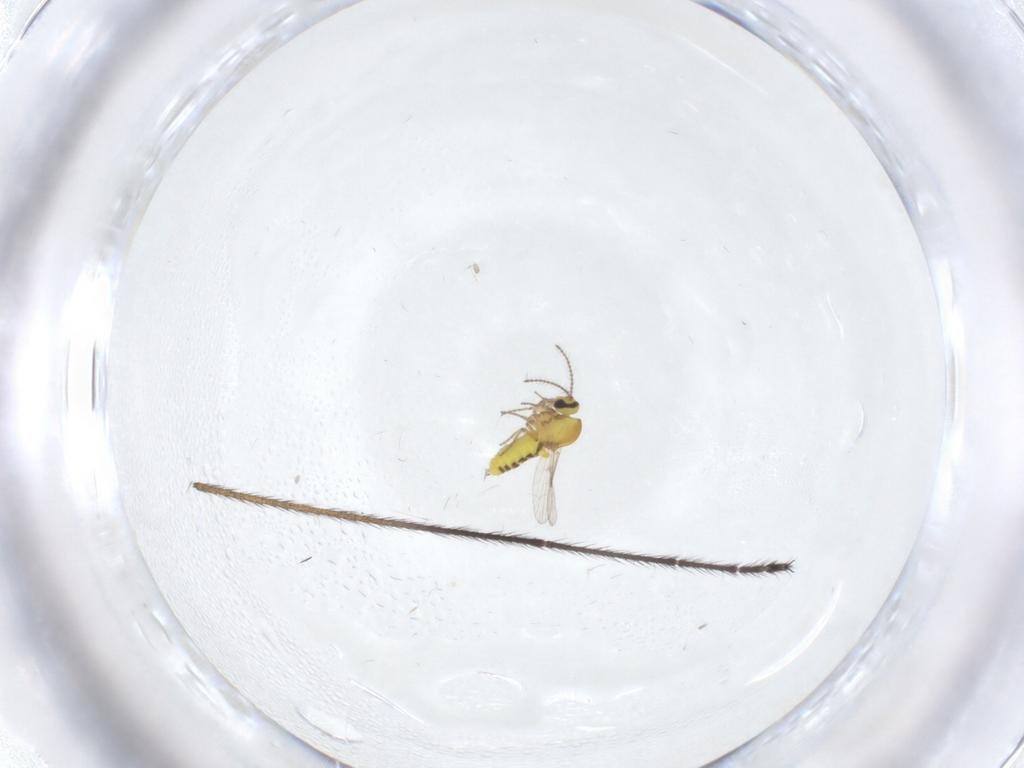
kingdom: Animalia
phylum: Arthropoda
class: Insecta
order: Diptera
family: Ceratopogonidae
